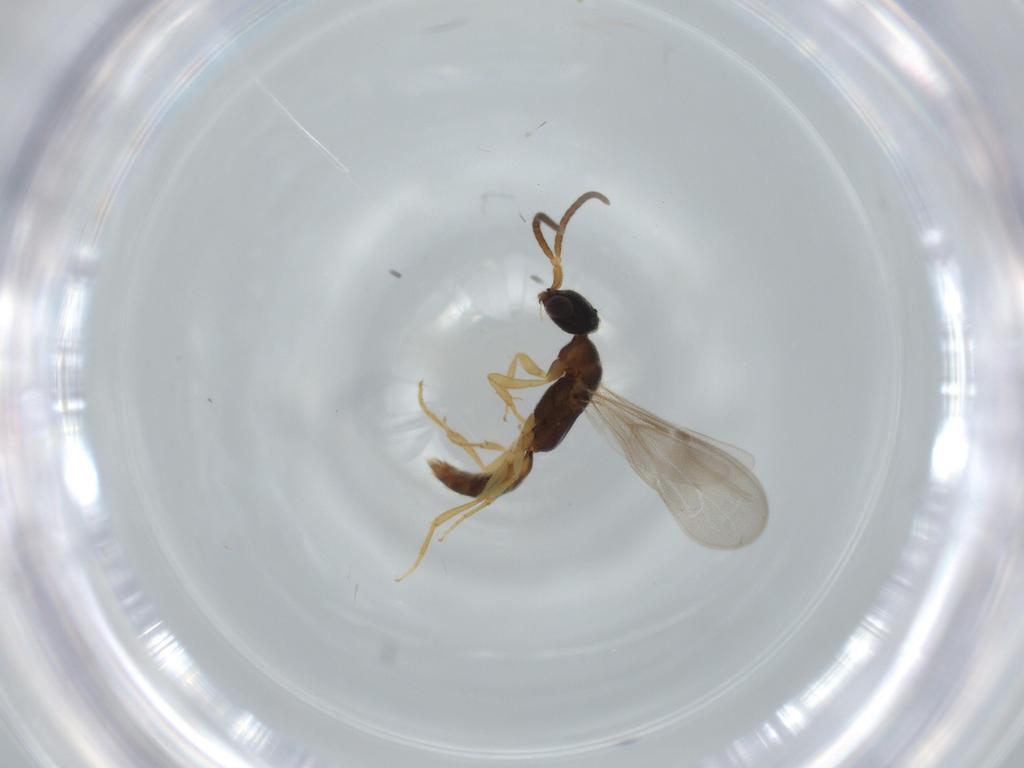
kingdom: Animalia
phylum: Arthropoda
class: Insecta
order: Hymenoptera
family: Bethylidae
